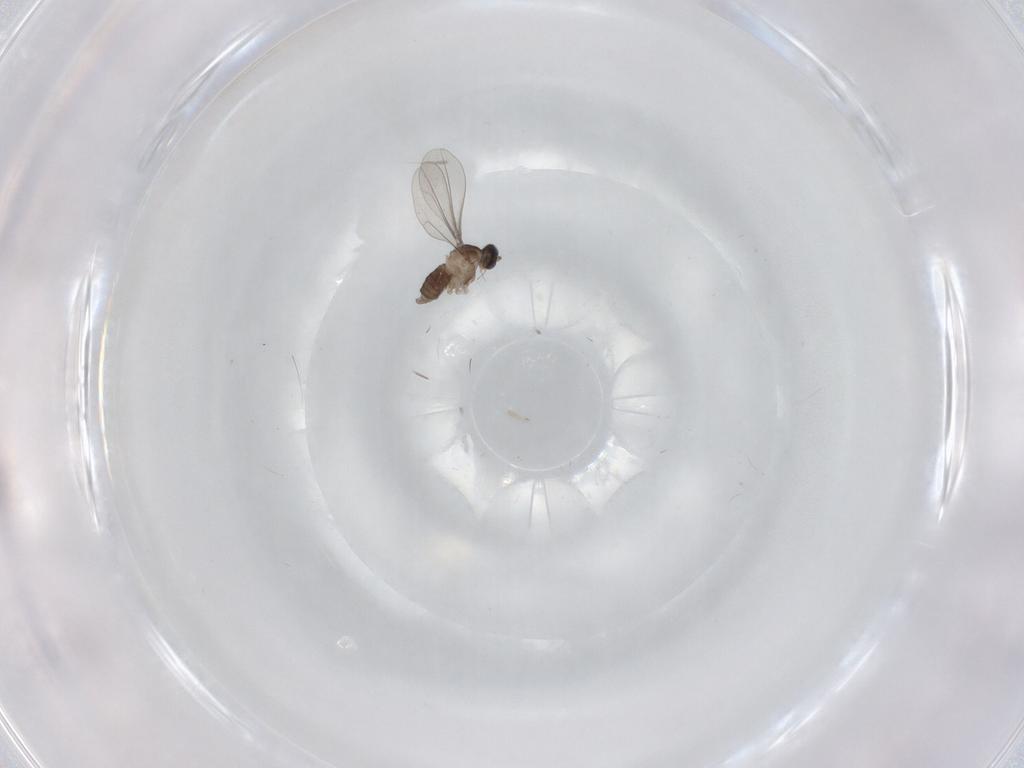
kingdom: Animalia
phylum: Arthropoda
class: Insecta
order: Diptera
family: Cecidomyiidae
